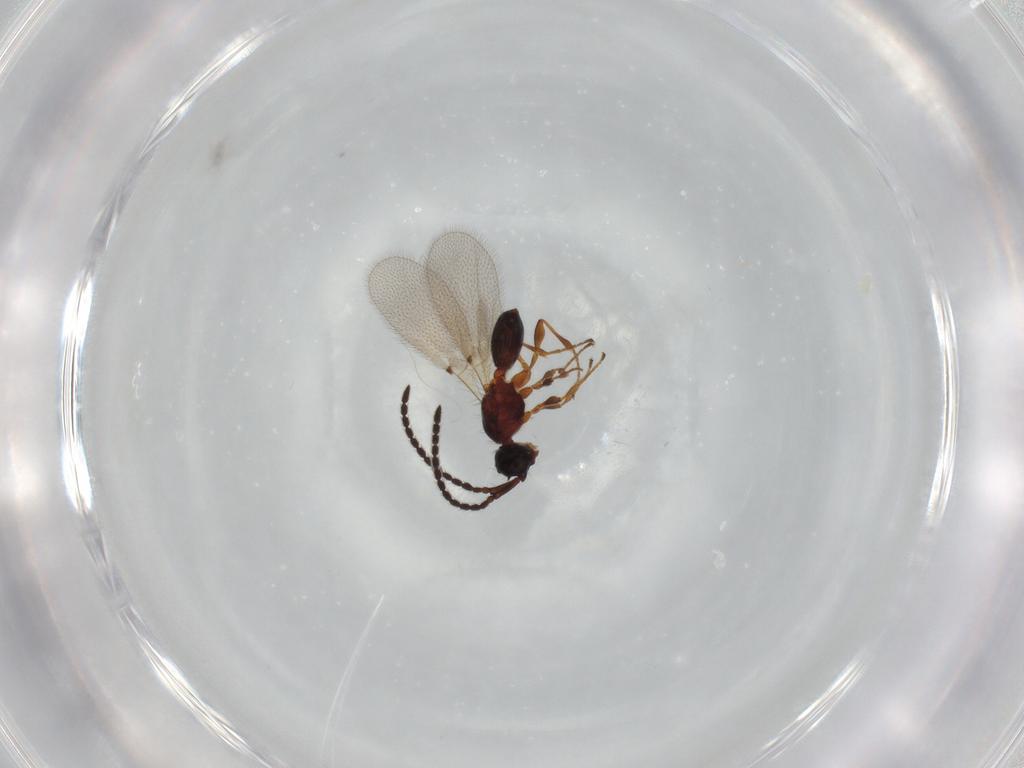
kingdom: Animalia
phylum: Arthropoda
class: Insecta
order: Hymenoptera
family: Diapriidae
